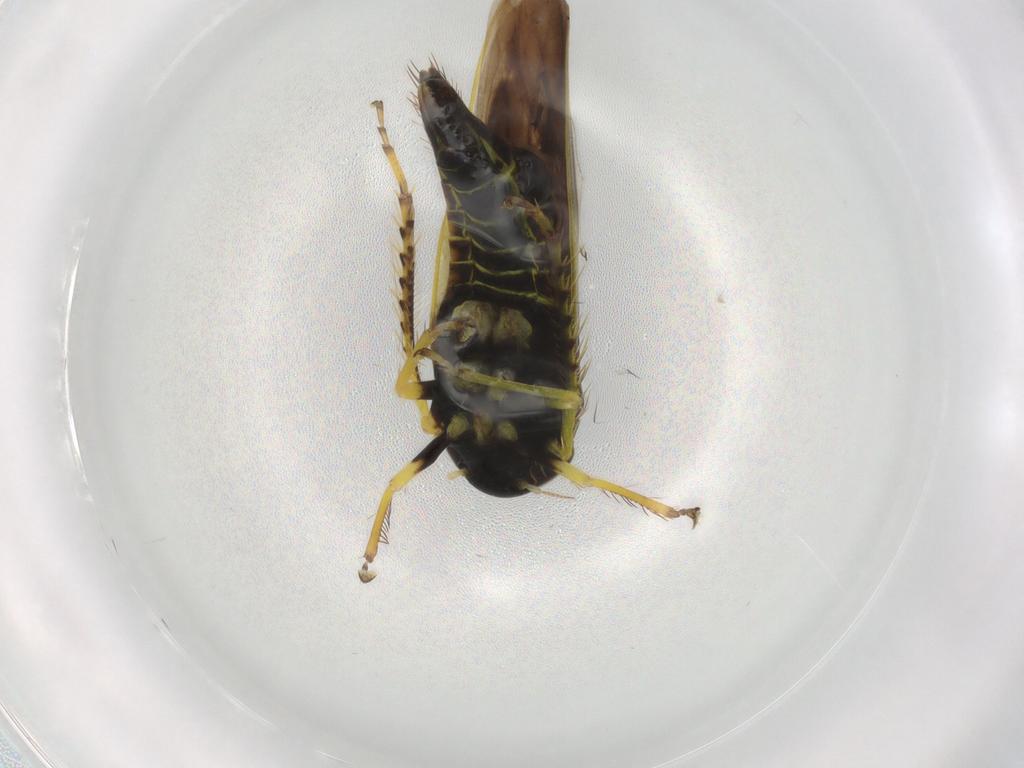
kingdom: Animalia
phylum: Arthropoda
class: Insecta
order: Hemiptera
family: Cicadellidae
